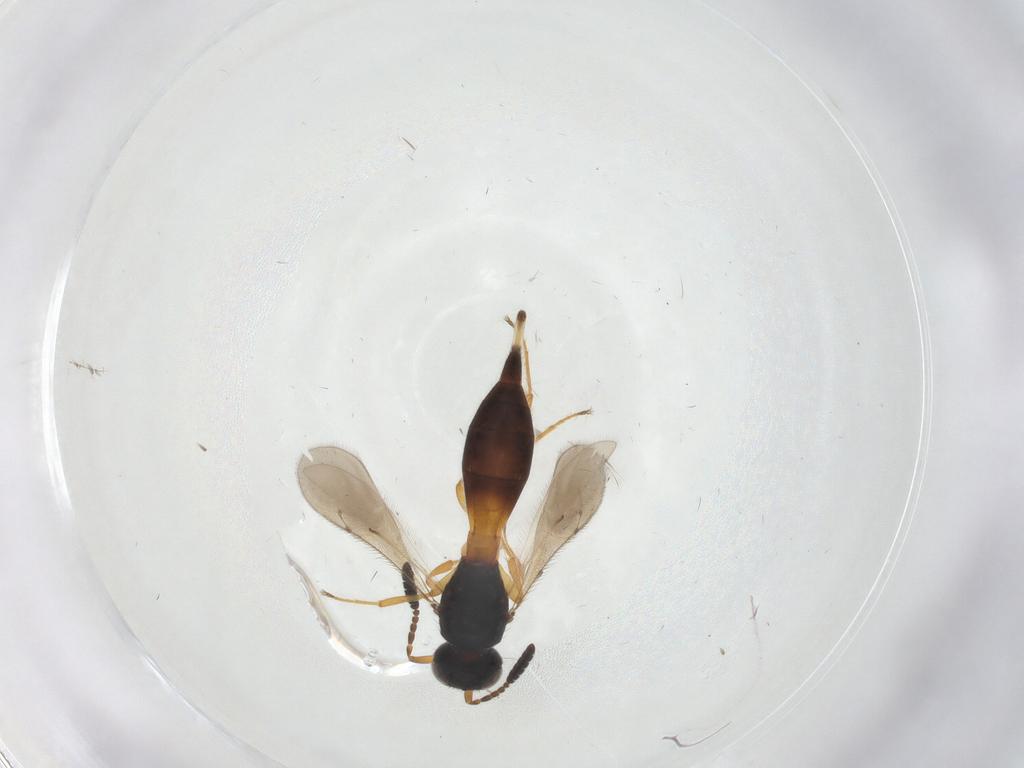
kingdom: Animalia
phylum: Arthropoda
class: Insecta
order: Hymenoptera
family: Scelionidae
